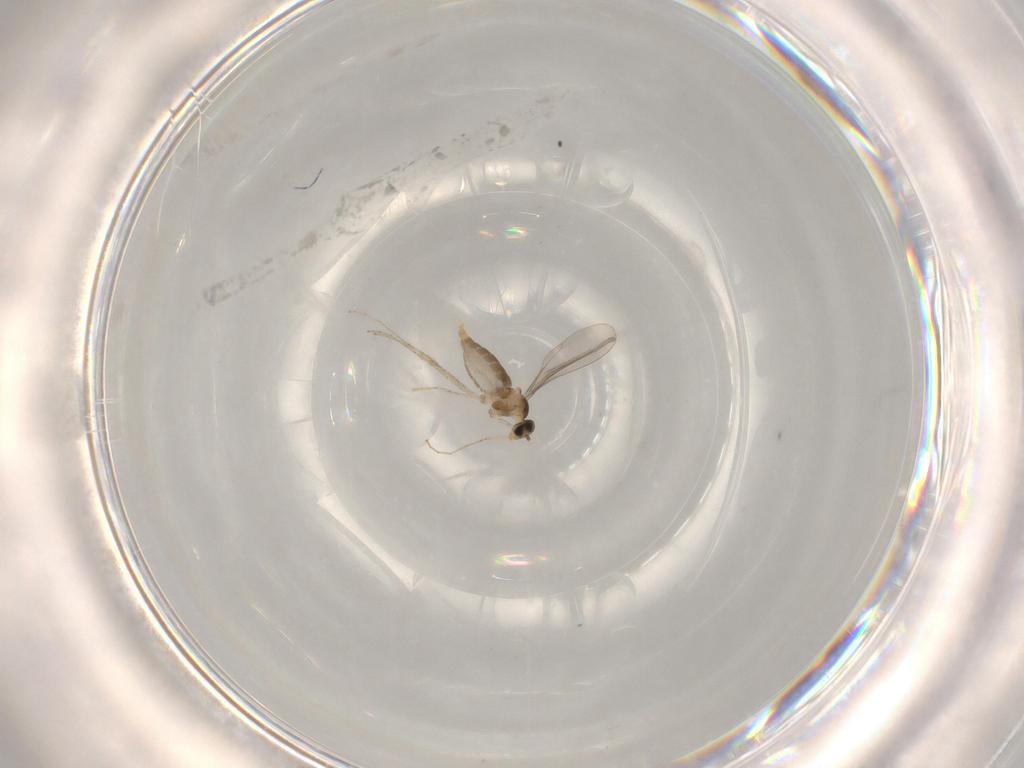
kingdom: Animalia
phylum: Arthropoda
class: Insecta
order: Diptera
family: Sciaridae
